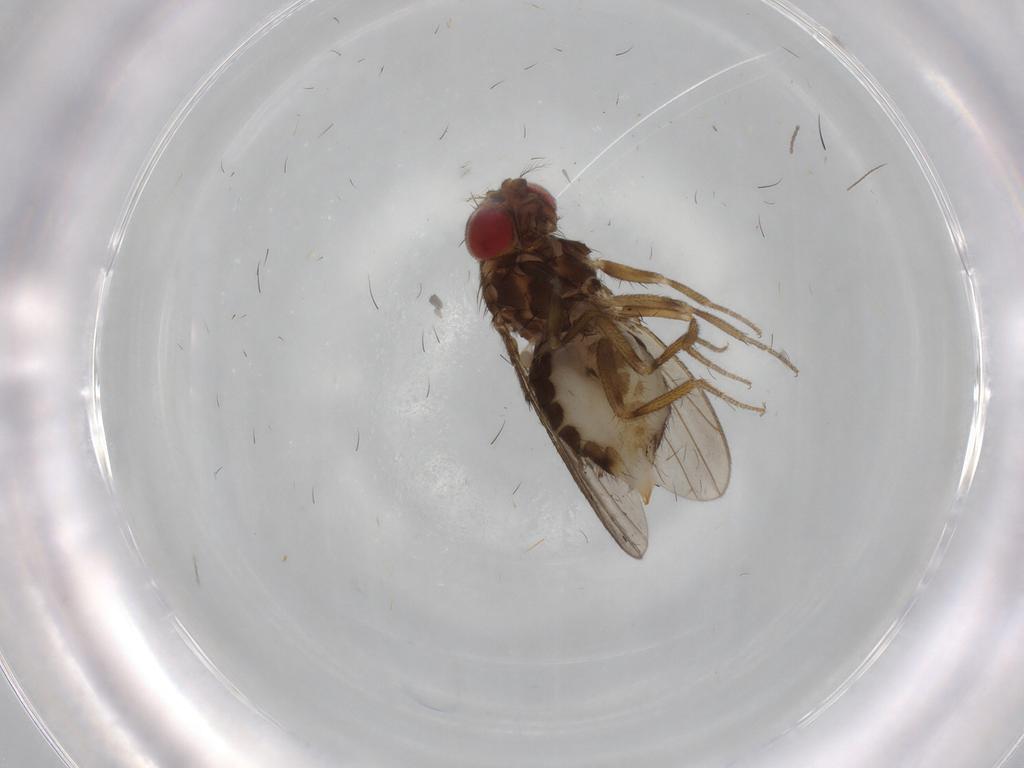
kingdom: Animalia
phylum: Arthropoda
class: Insecta
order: Diptera
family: Drosophilidae
